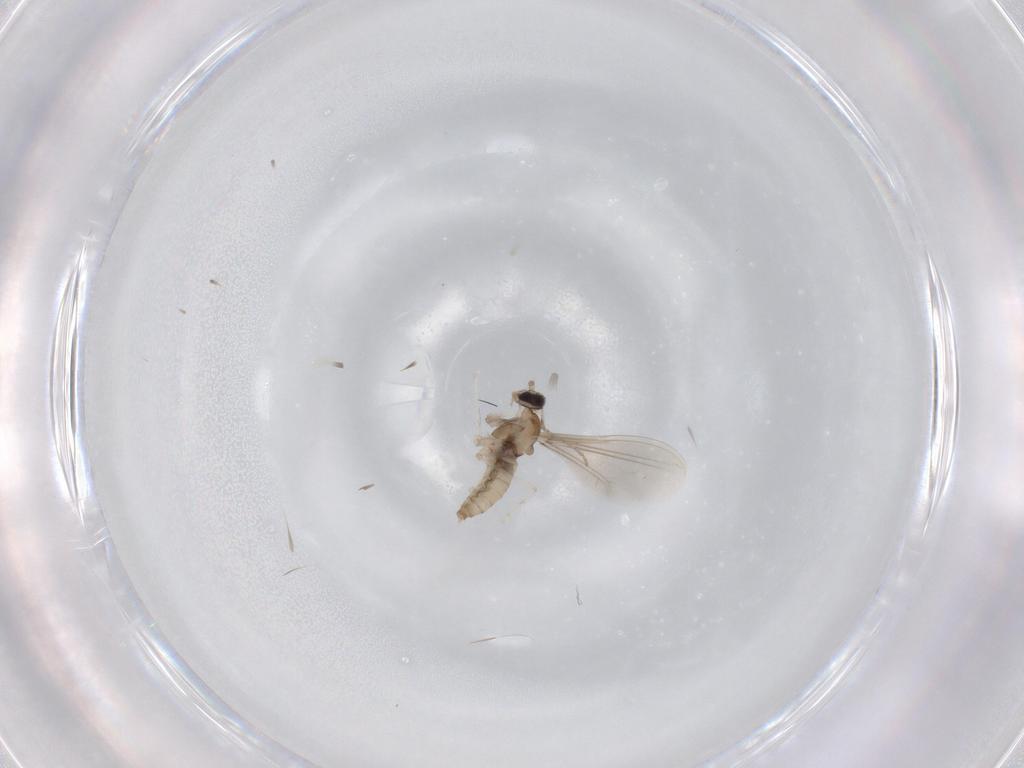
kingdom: Animalia
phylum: Arthropoda
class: Insecta
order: Diptera
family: Cecidomyiidae
